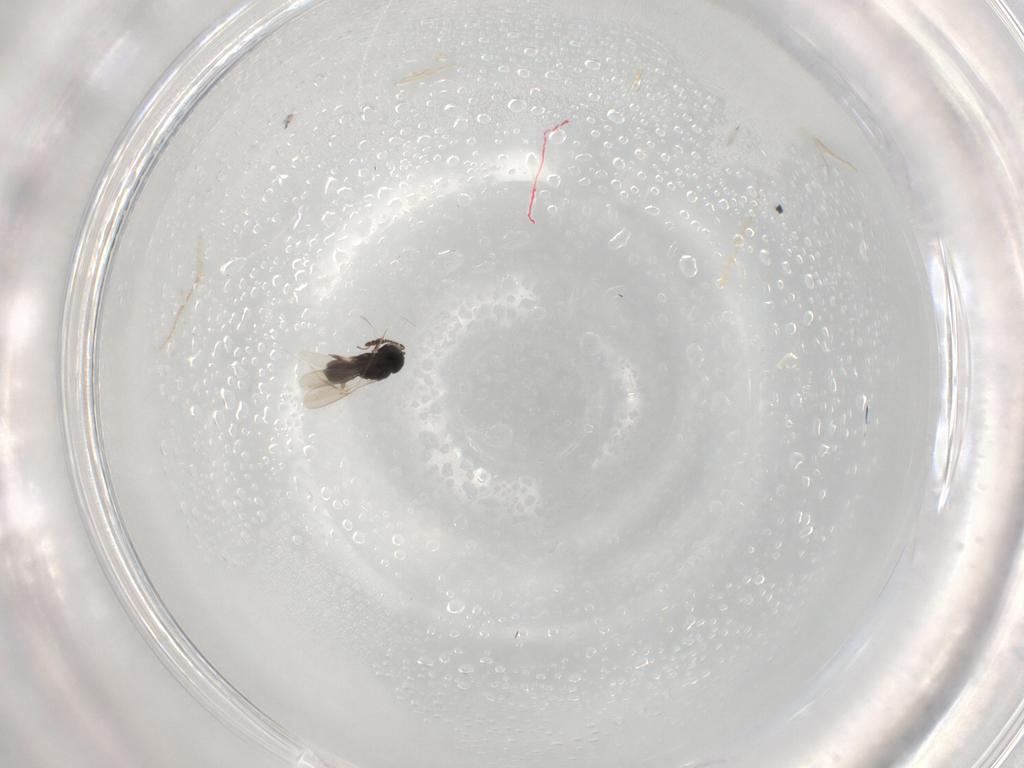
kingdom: Animalia
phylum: Arthropoda
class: Insecta
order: Hymenoptera
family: Scelionidae
